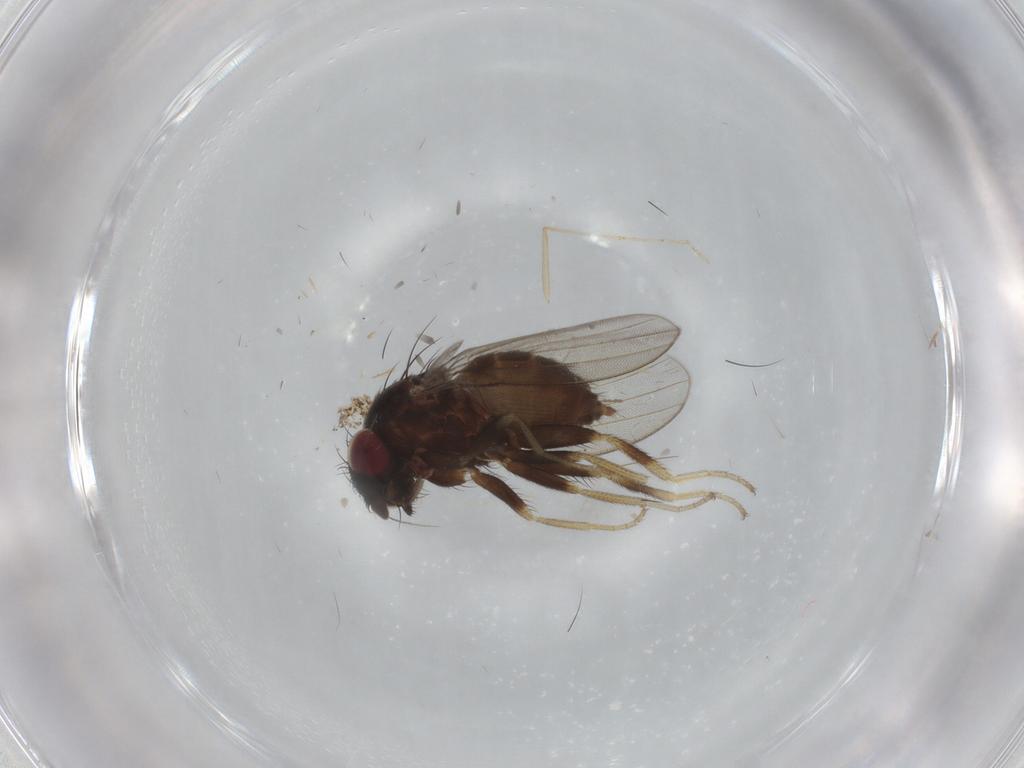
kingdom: Animalia
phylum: Arthropoda
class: Insecta
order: Diptera
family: Milichiidae
